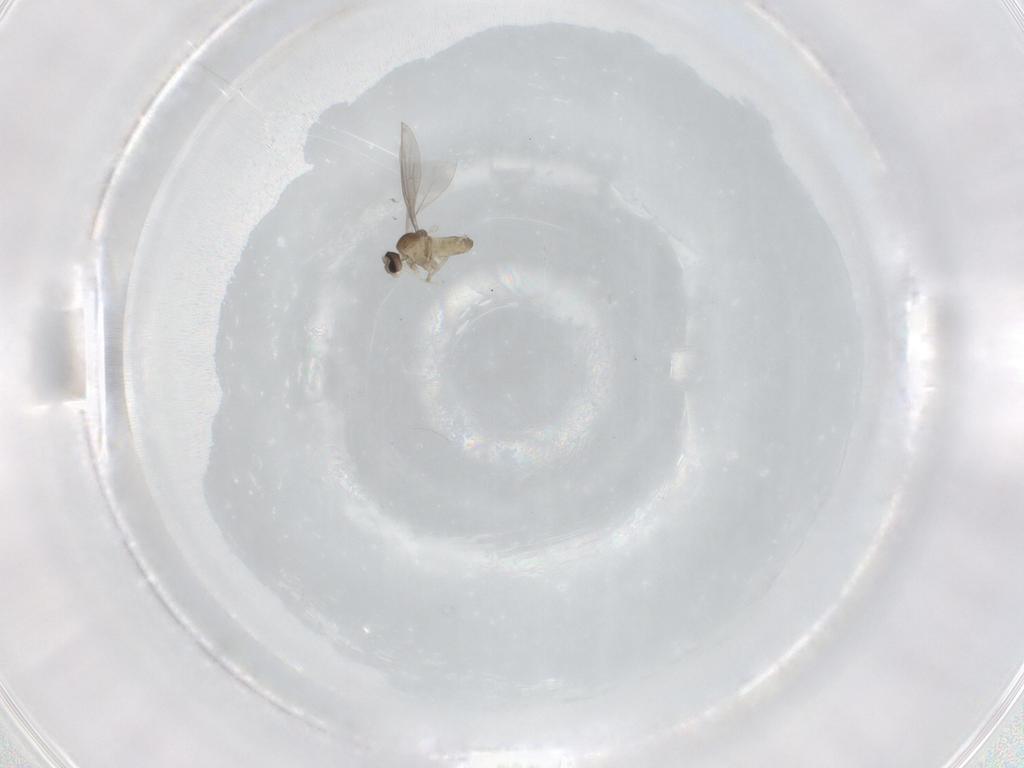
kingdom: Animalia
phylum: Arthropoda
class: Insecta
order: Diptera
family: Cecidomyiidae
